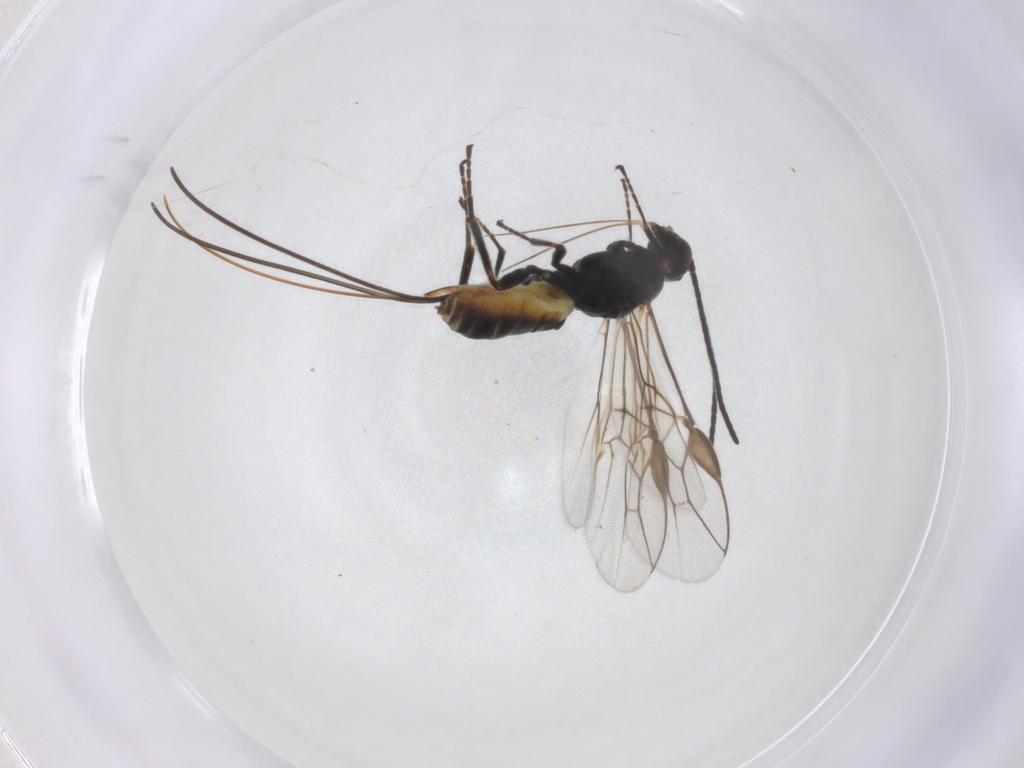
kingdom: Animalia
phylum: Arthropoda
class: Insecta
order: Hymenoptera
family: Braconidae
